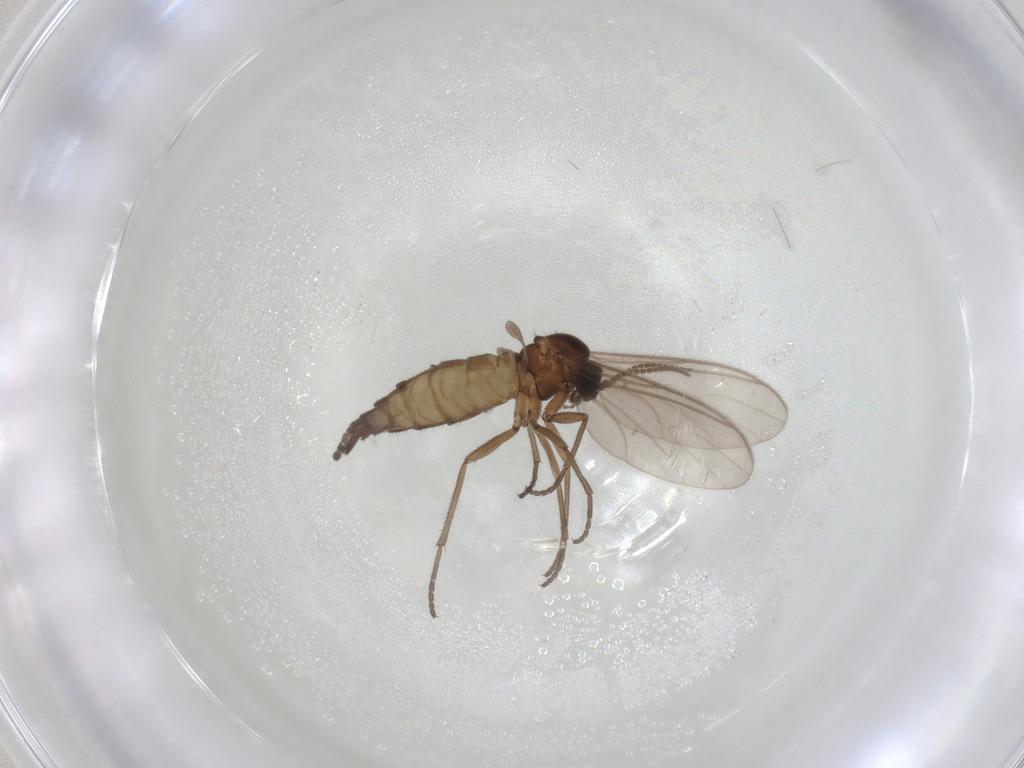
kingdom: Animalia
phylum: Arthropoda
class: Insecta
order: Diptera
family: Sciaridae
